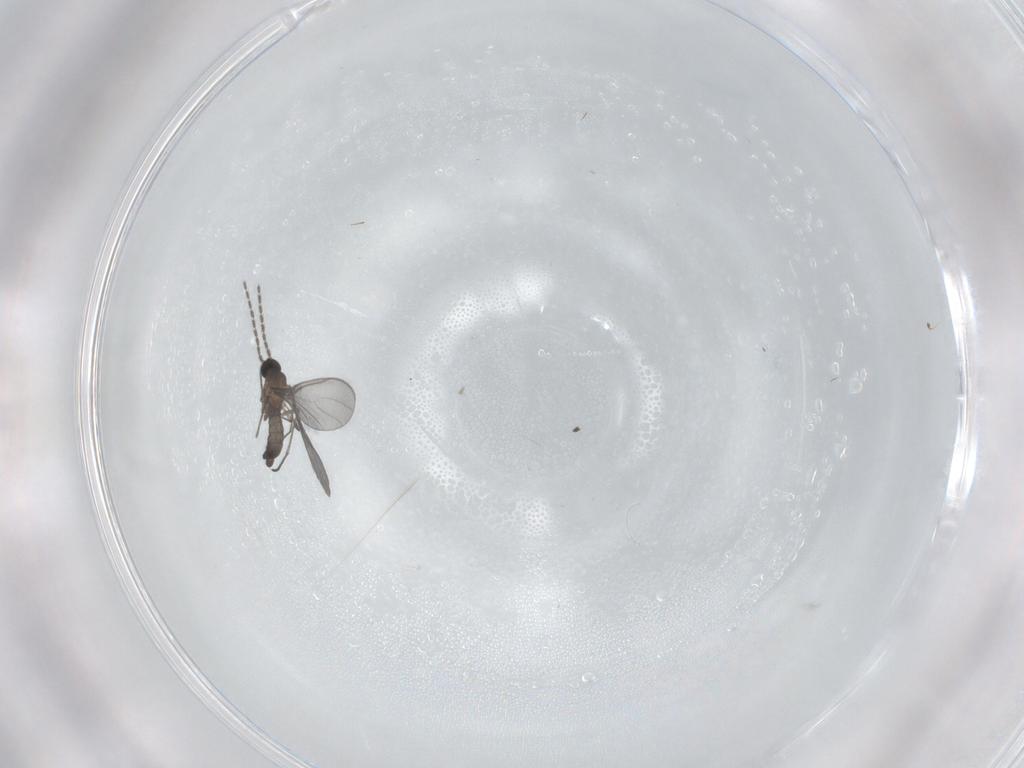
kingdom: Animalia
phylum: Arthropoda
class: Insecta
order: Diptera
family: Sciaridae
